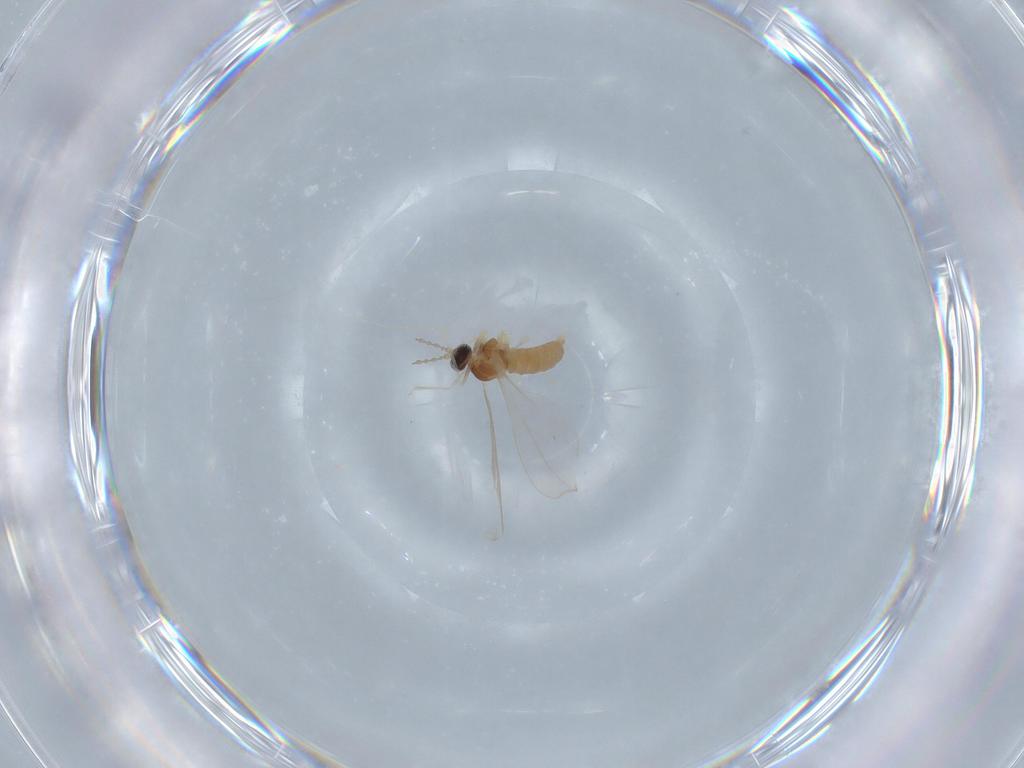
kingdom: Animalia
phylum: Arthropoda
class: Insecta
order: Diptera
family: Cecidomyiidae
